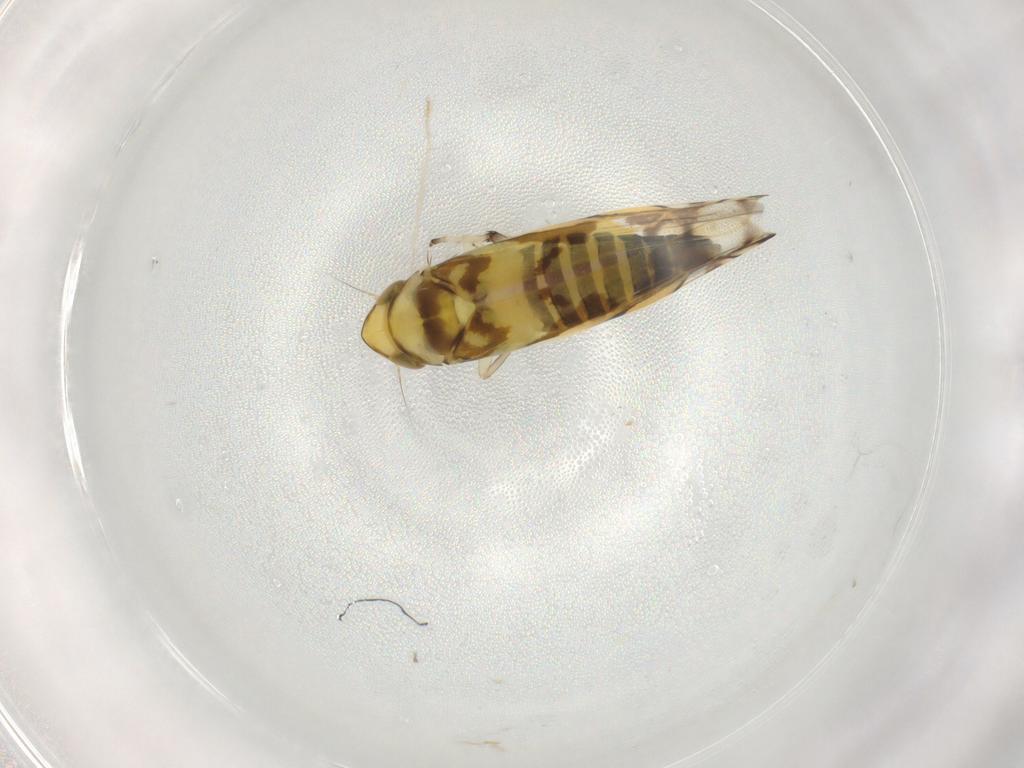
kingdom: Animalia
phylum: Arthropoda
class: Insecta
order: Hemiptera
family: Cicadellidae
